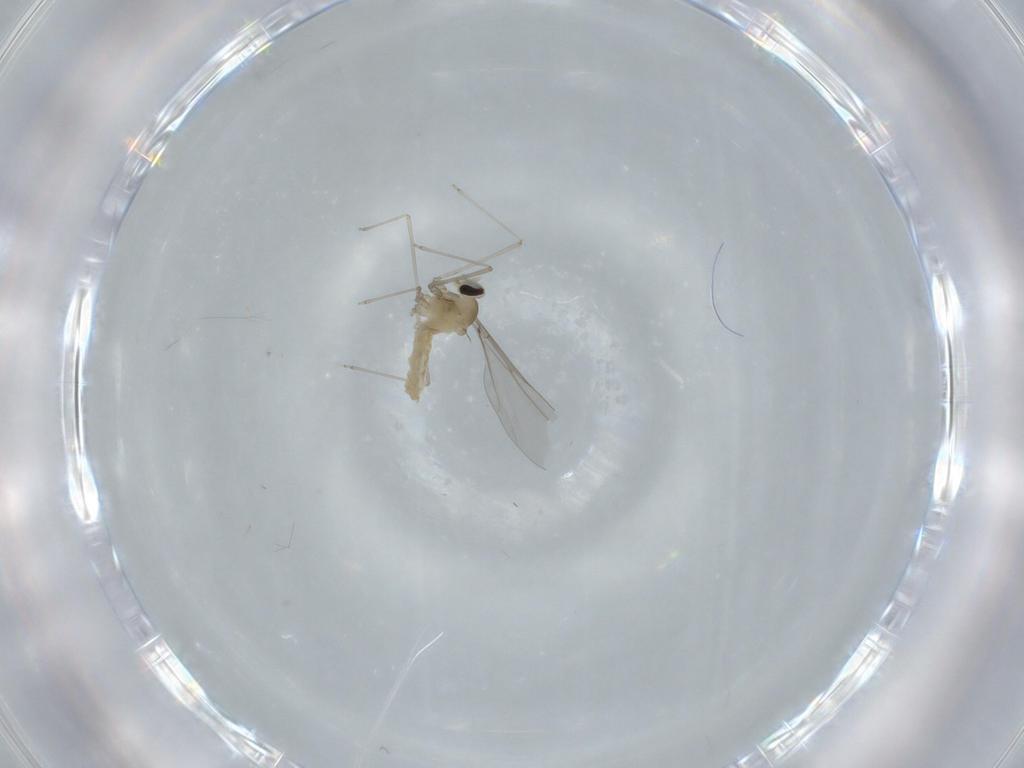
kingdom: Animalia
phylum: Arthropoda
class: Insecta
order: Diptera
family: Cecidomyiidae
